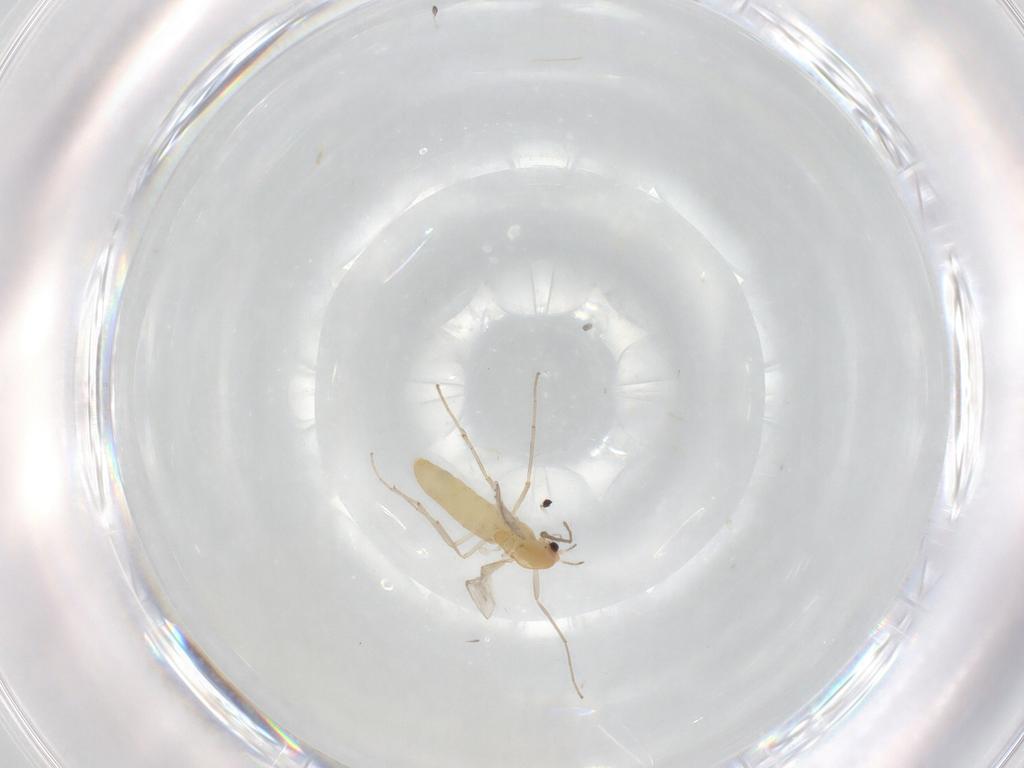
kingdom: Animalia
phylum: Arthropoda
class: Insecta
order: Diptera
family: Chironomidae
